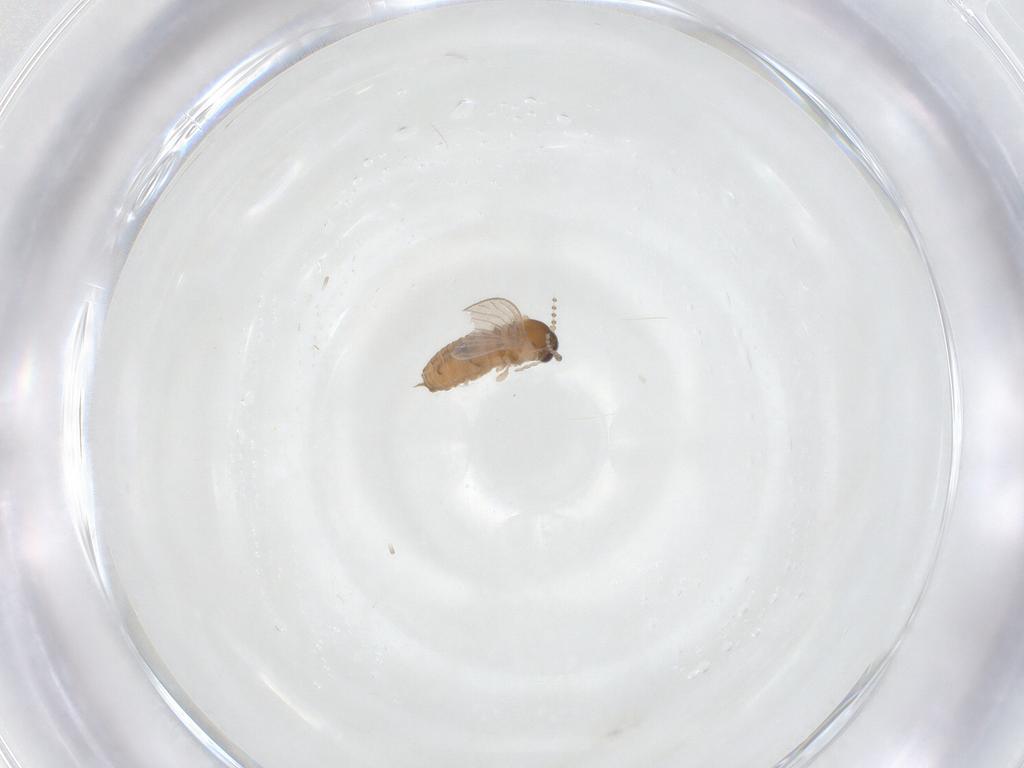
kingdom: Animalia
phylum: Arthropoda
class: Insecta
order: Diptera
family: Psychodidae
